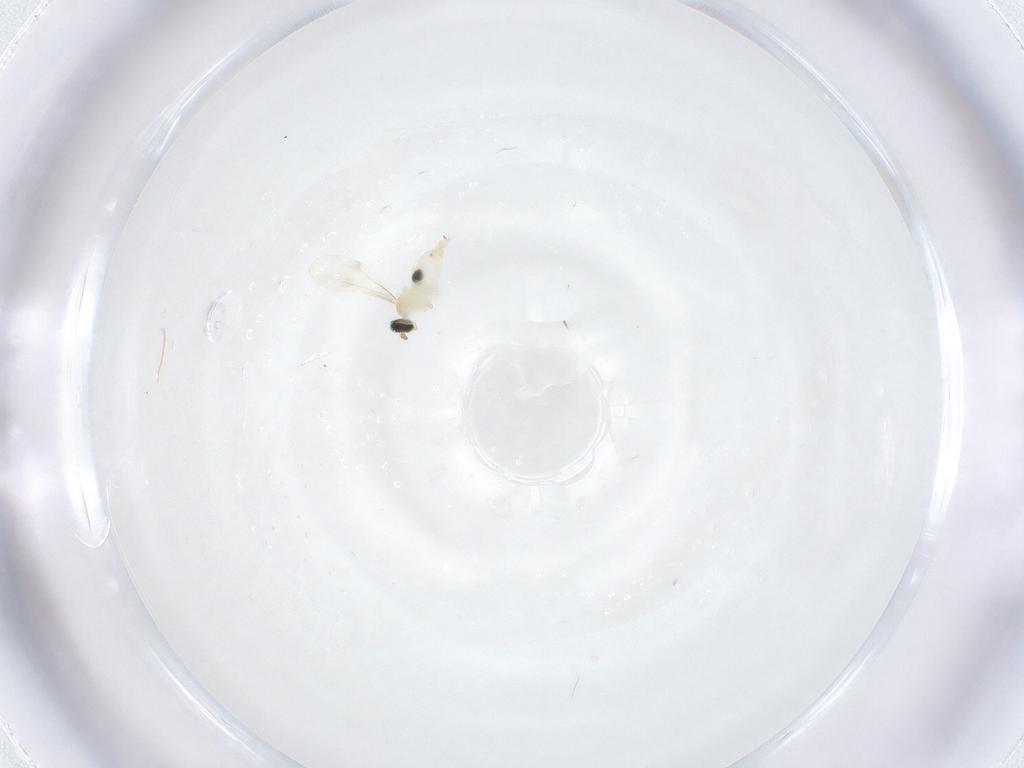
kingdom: Animalia
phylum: Arthropoda
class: Insecta
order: Diptera
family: Cecidomyiidae
